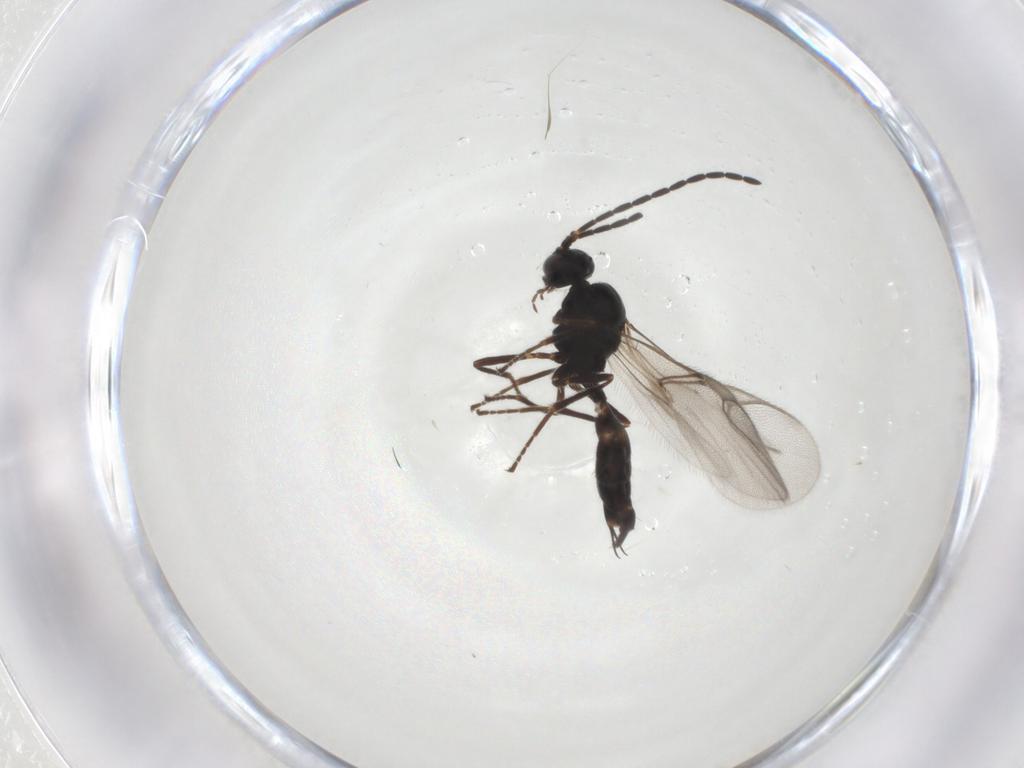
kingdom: Animalia
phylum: Arthropoda
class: Insecta
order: Hymenoptera
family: Braconidae
